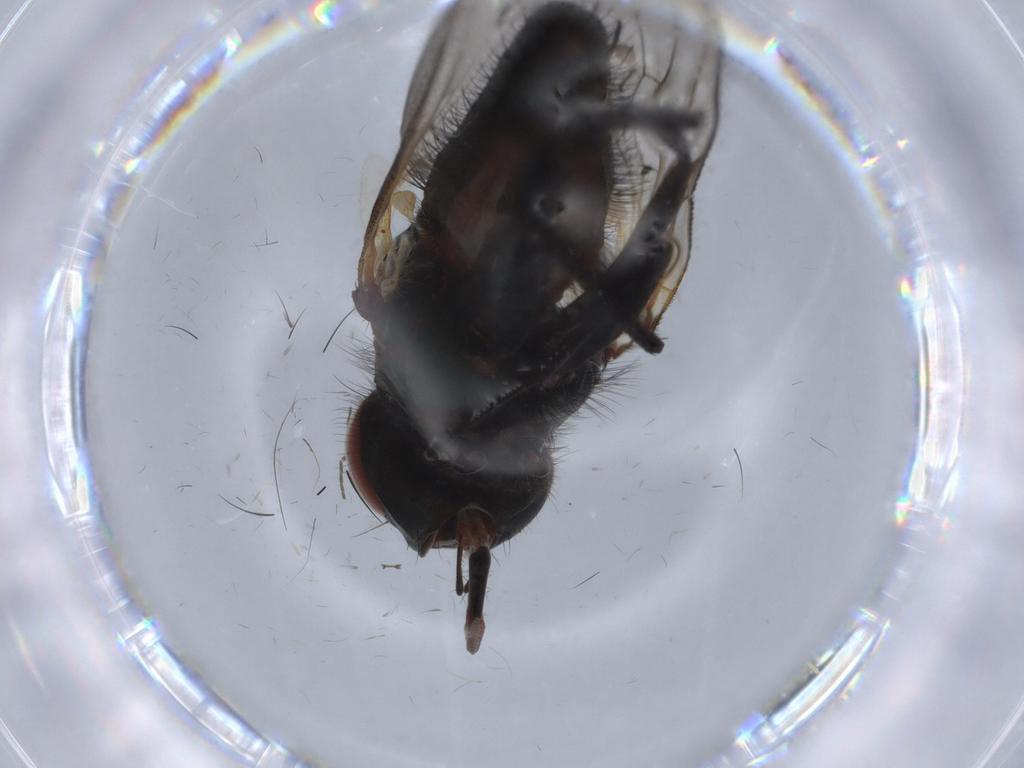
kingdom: Animalia
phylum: Arthropoda
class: Insecta
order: Diptera
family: Anthomyiidae
